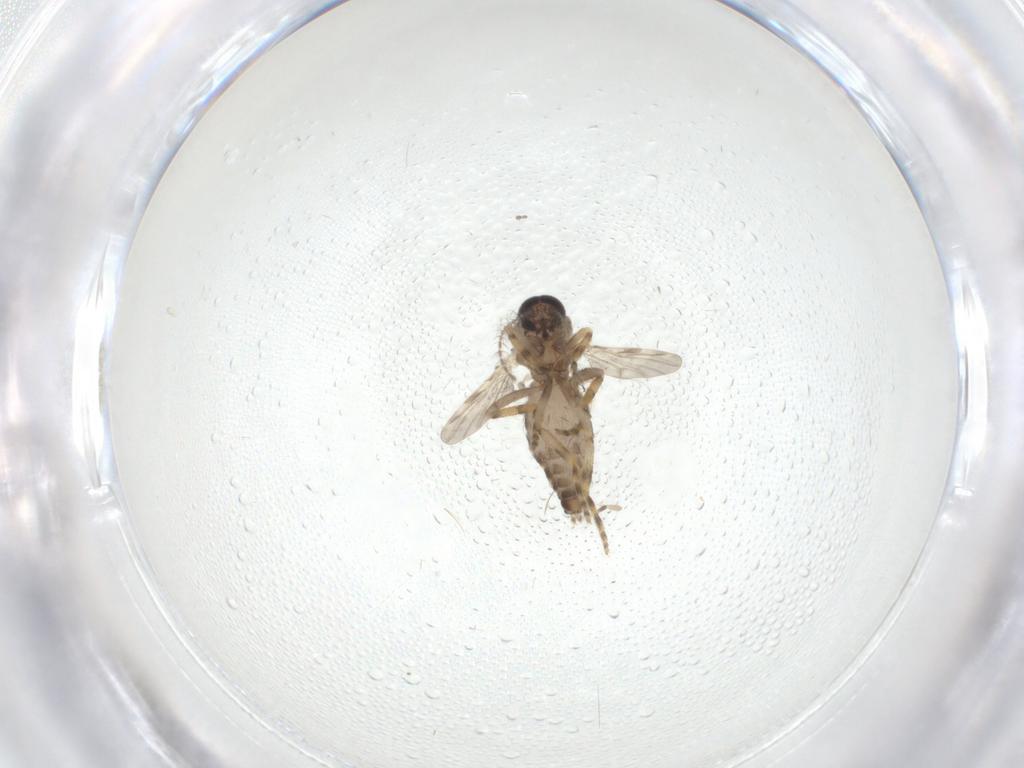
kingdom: Animalia
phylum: Arthropoda
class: Insecta
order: Diptera
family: Ceratopogonidae
